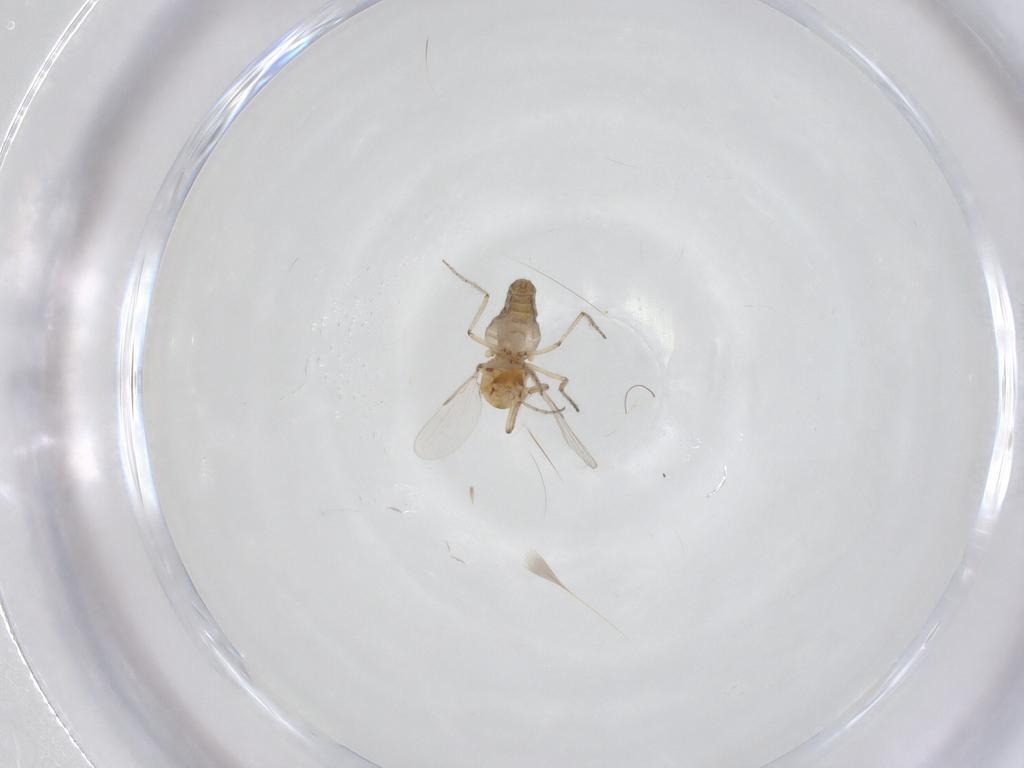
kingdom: Animalia
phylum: Arthropoda
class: Insecta
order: Diptera
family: Ceratopogonidae
